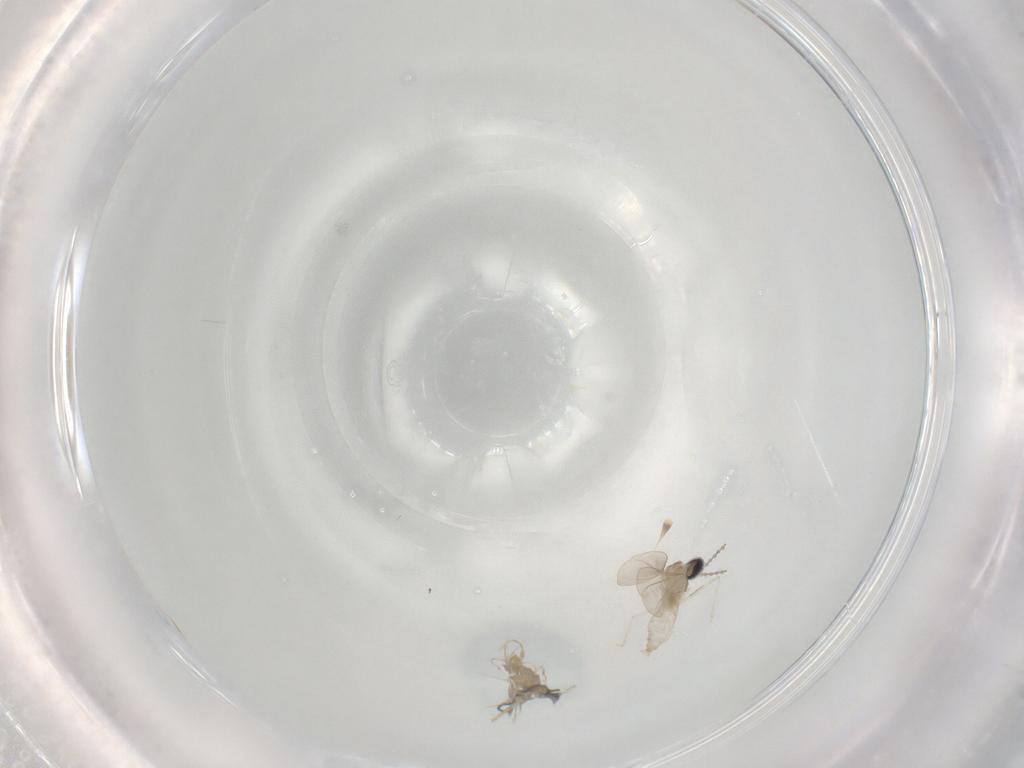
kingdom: Animalia
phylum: Arthropoda
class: Insecta
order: Diptera
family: Cecidomyiidae
